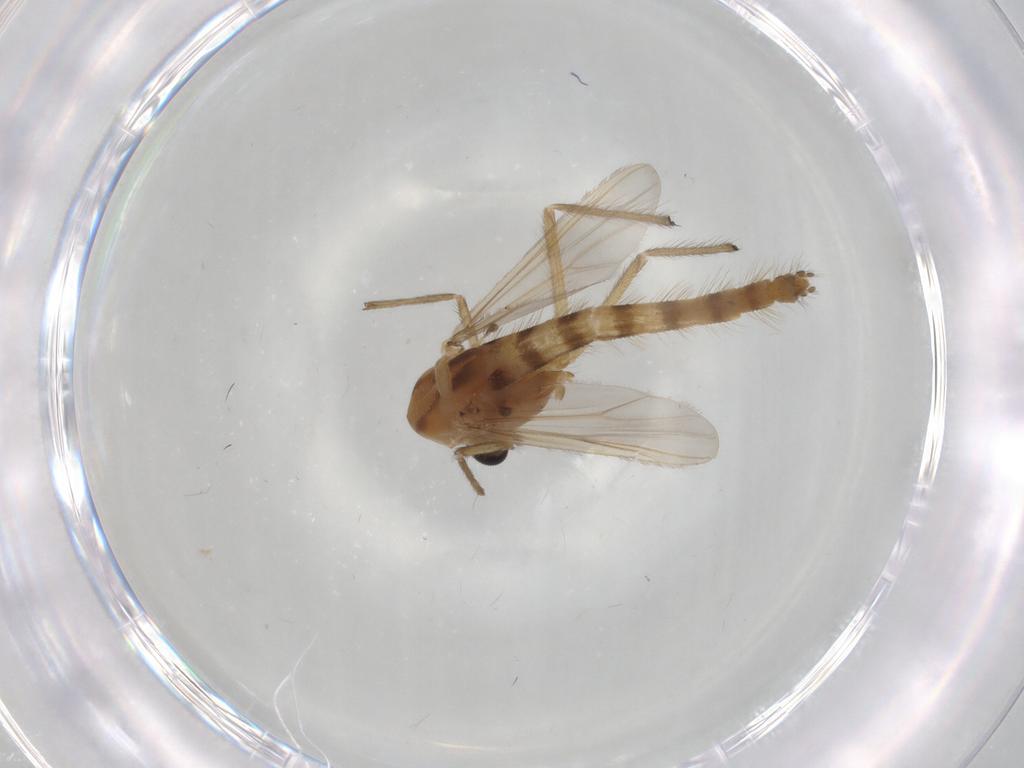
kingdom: Animalia
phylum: Arthropoda
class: Insecta
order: Diptera
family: Chironomidae
